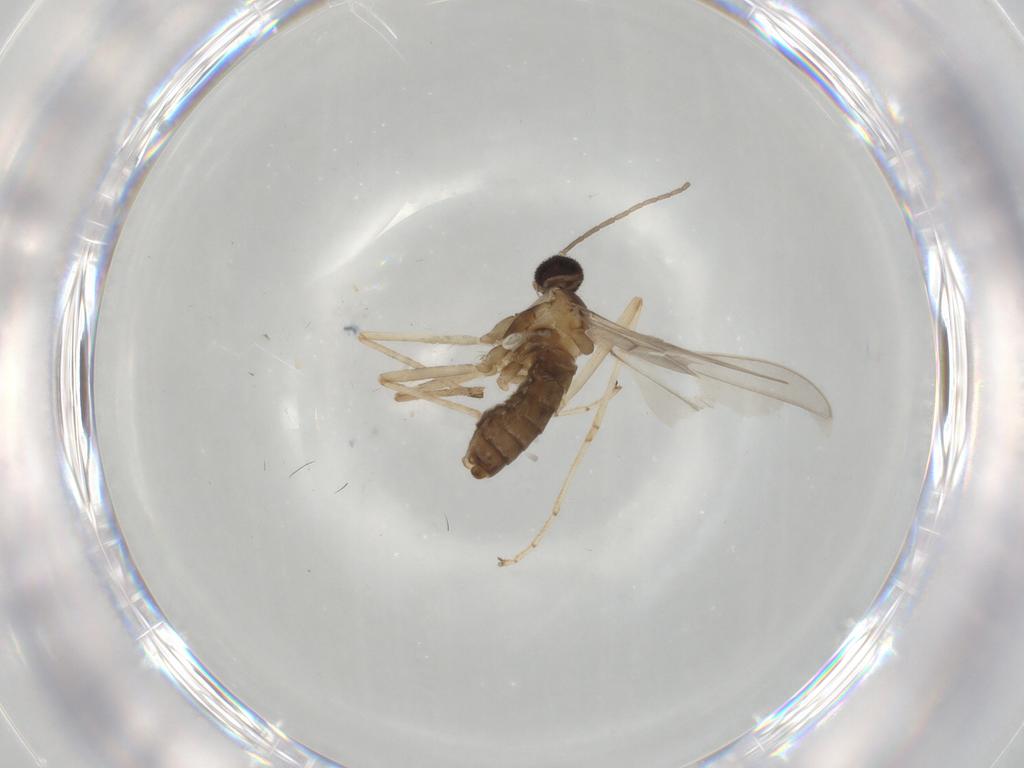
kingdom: Animalia
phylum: Arthropoda
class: Insecta
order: Diptera
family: Cecidomyiidae
